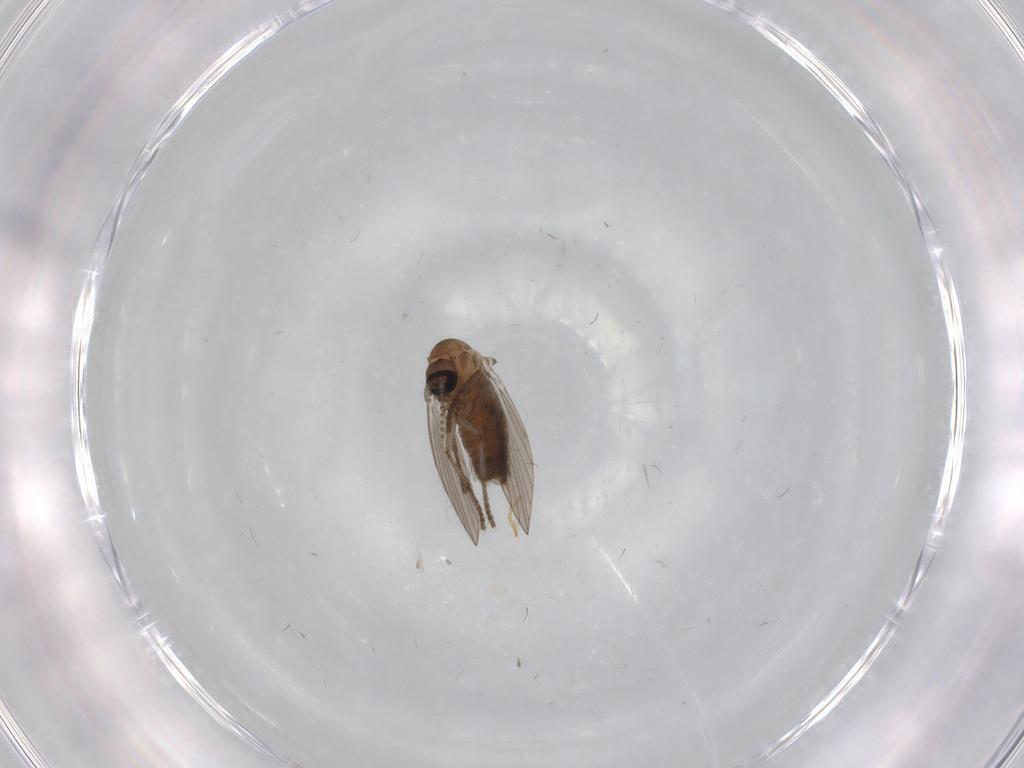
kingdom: Animalia
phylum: Arthropoda
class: Insecta
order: Diptera
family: Psychodidae
